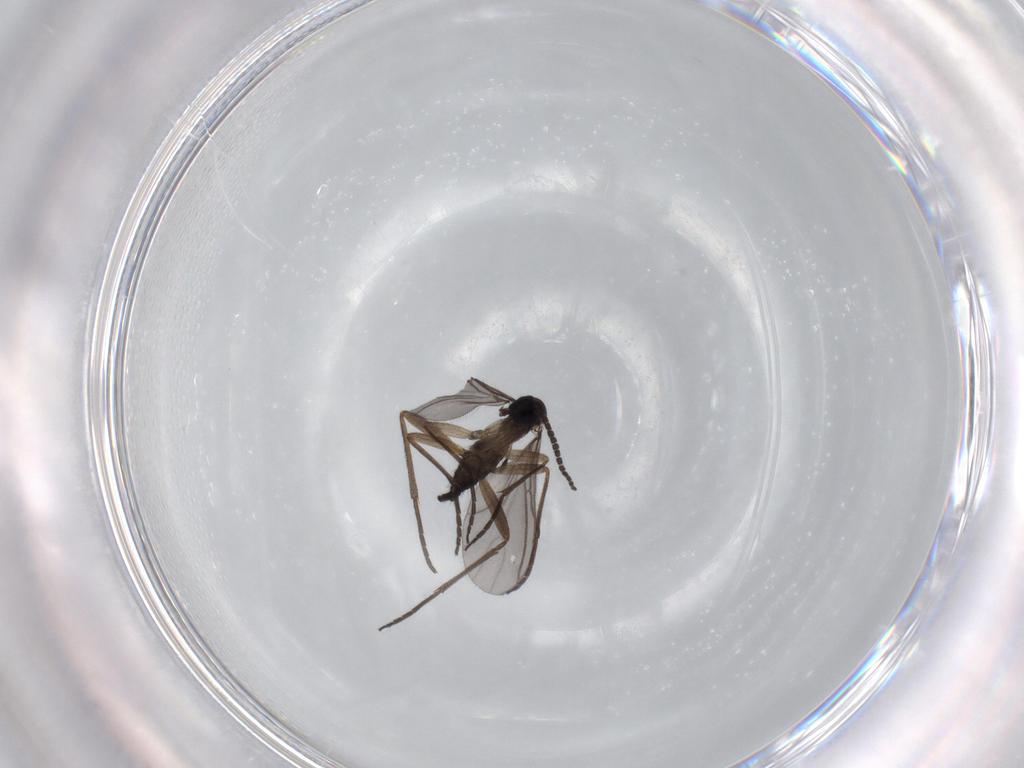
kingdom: Animalia
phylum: Arthropoda
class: Insecta
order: Diptera
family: Sciaridae
